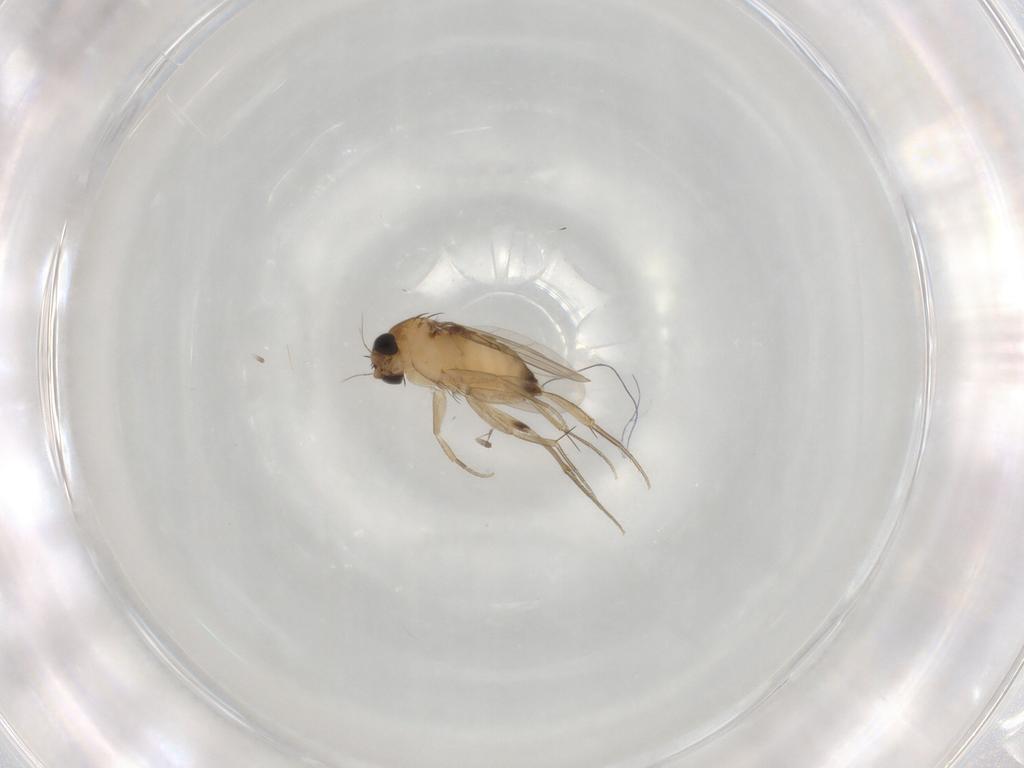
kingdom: Animalia
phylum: Arthropoda
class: Insecta
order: Diptera
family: Phoridae
